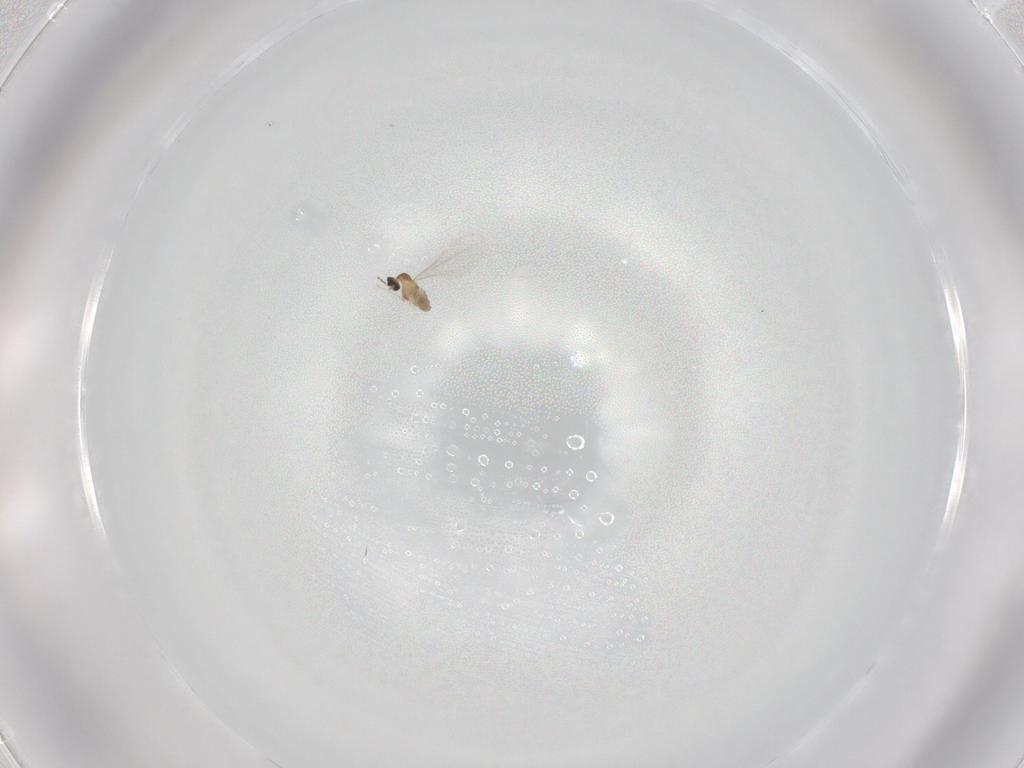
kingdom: Animalia
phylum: Arthropoda
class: Insecta
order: Diptera
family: Cecidomyiidae
